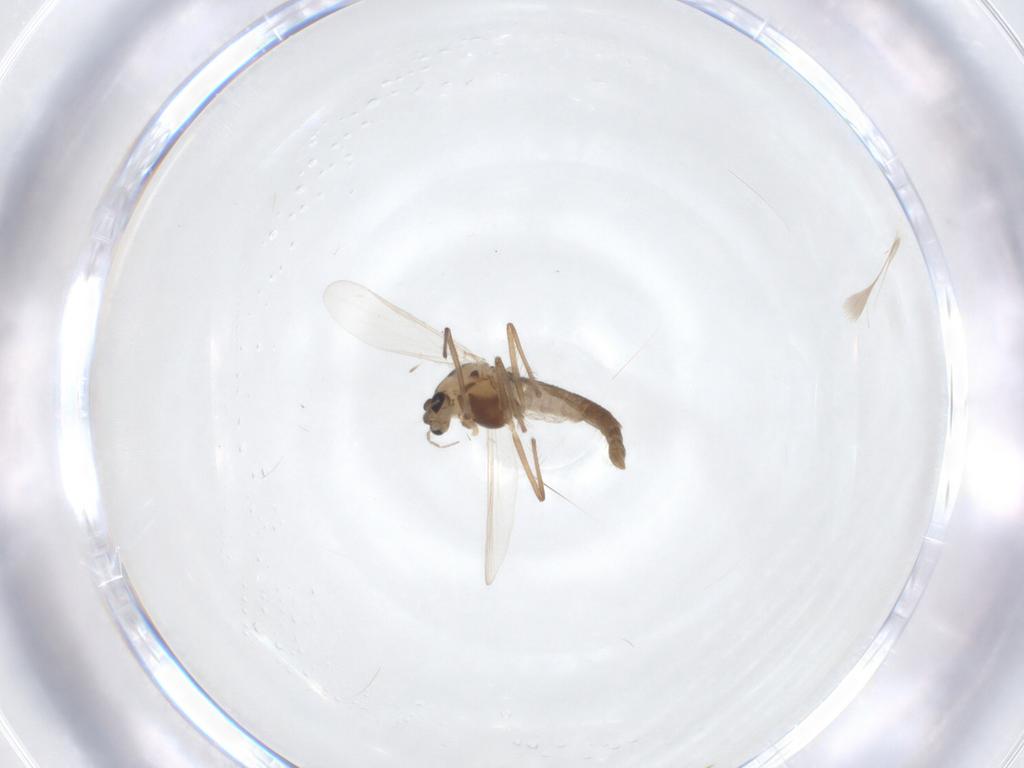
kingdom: Animalia
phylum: Arthropoda
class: Insecta
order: Diptera
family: Chironomidae
